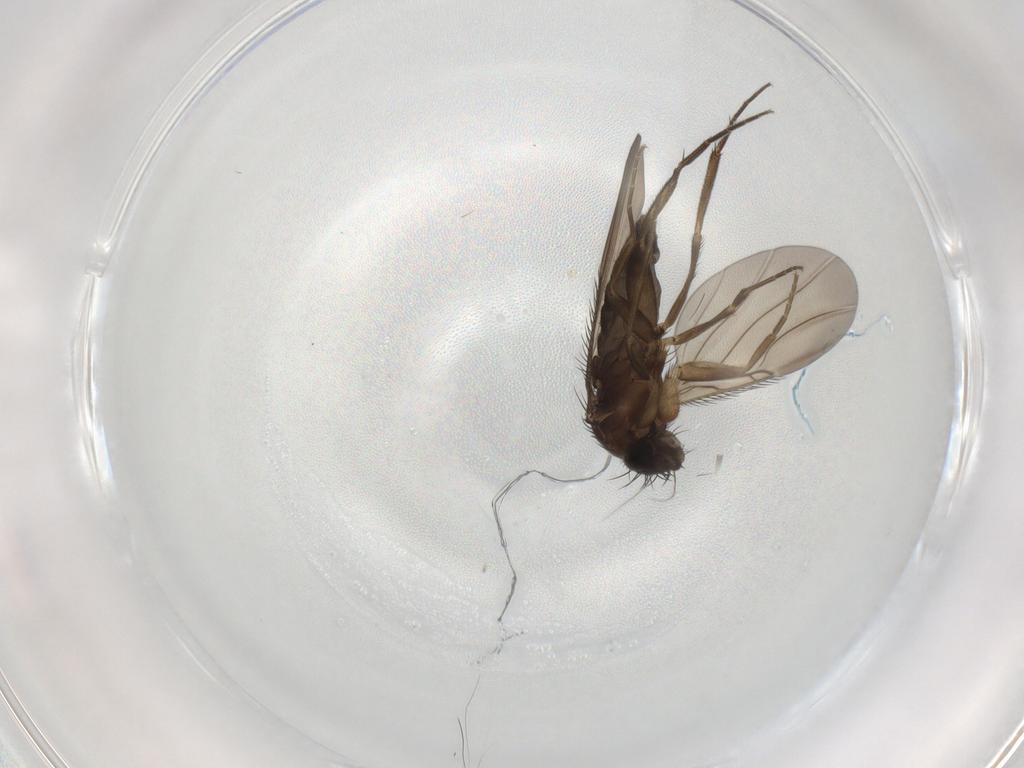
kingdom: Animalia
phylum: Arthropoda
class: Insecta
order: Diptera
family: Phoridae
